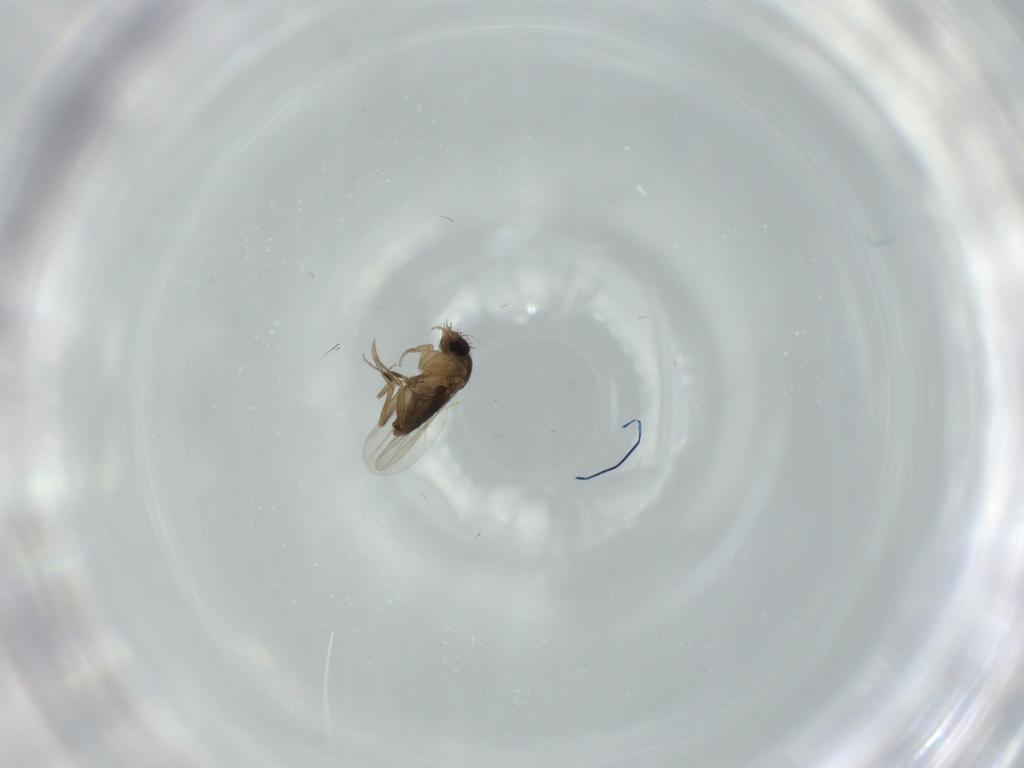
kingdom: Animalia
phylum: Arthropoda
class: Insecta
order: Diptera
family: Phoridae
